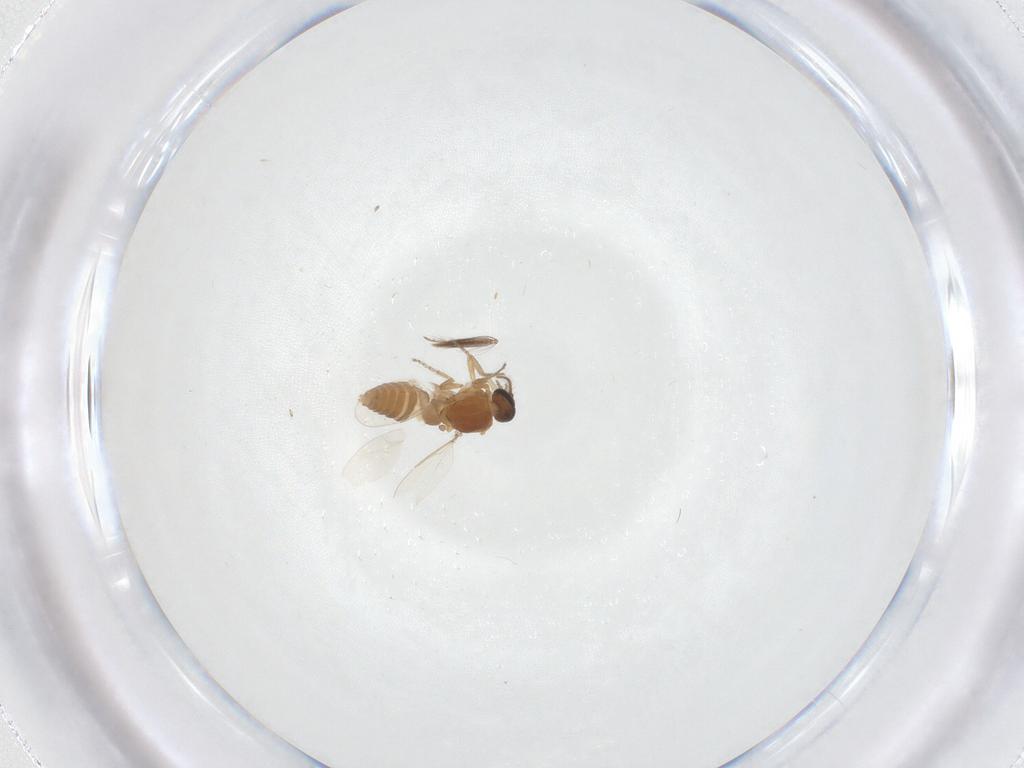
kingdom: Animalia
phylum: Arthropoda
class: Insecta
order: Diptera
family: Ceratopogonidae
